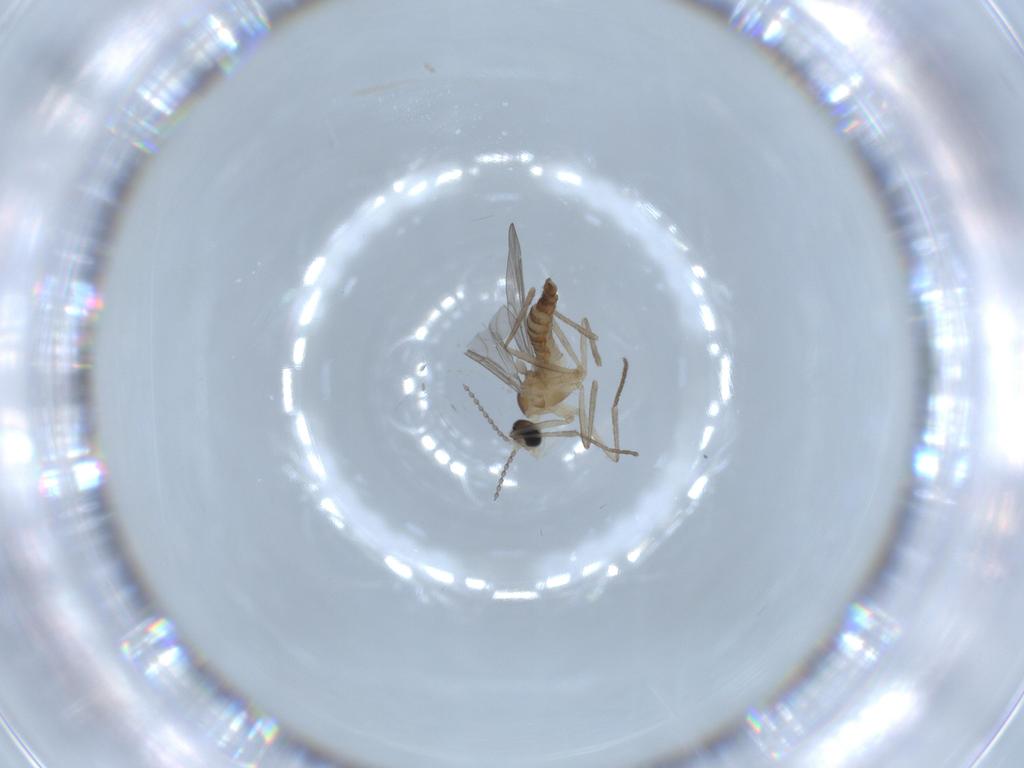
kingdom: Animalia
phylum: Arthropoda
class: Insecta
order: Diptera
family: Cecidomyiidae
